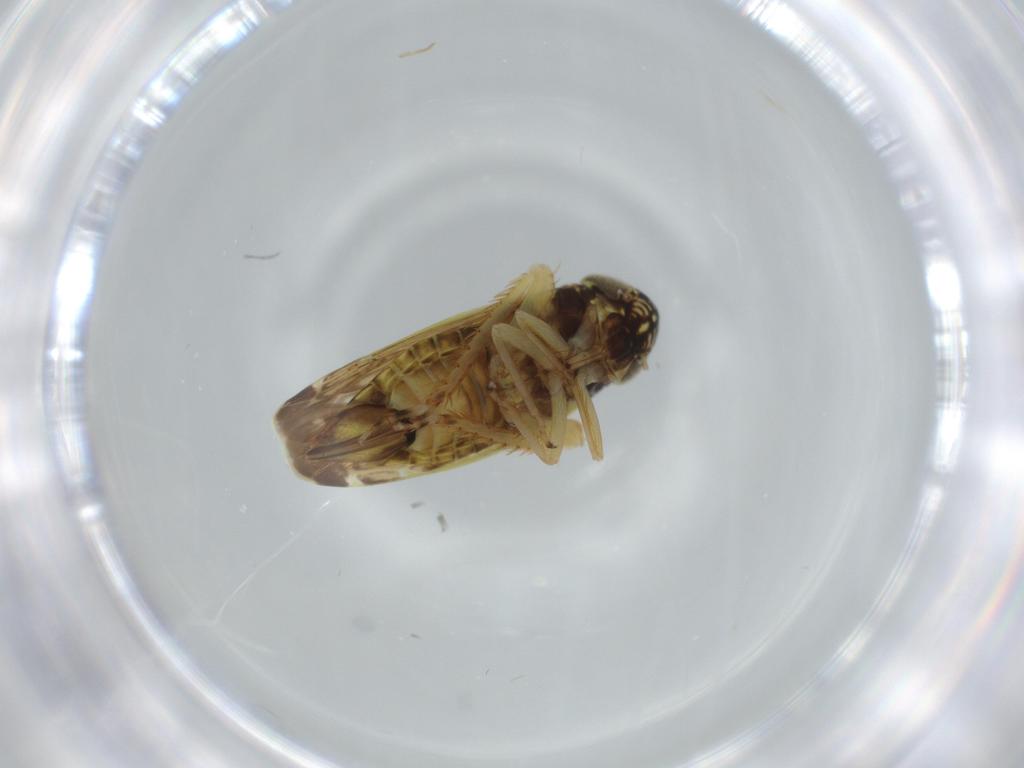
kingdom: Animalia
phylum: Arthropoda
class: Insecta
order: Hemiptera
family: Cicadellidae
